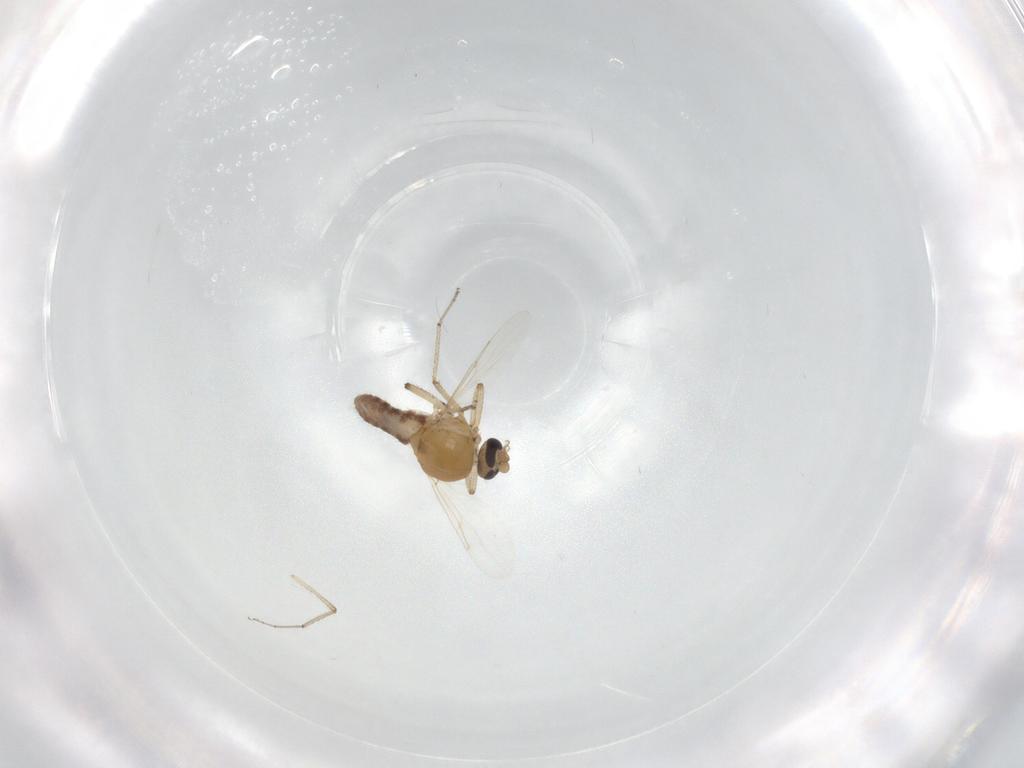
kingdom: Animalia
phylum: Arthropoda
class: Insecta
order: Diptera
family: Ceratopogonidae
